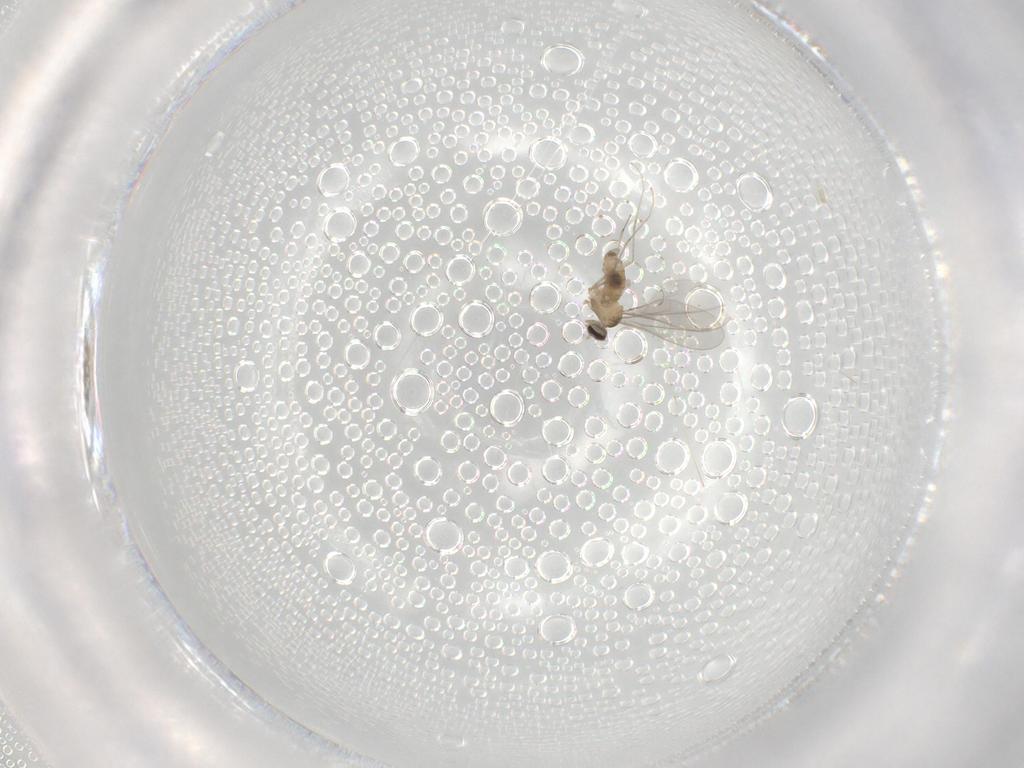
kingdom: Animalia
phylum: Arthropoda
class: Insecta
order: Diptera
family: Cecidomyiidae
